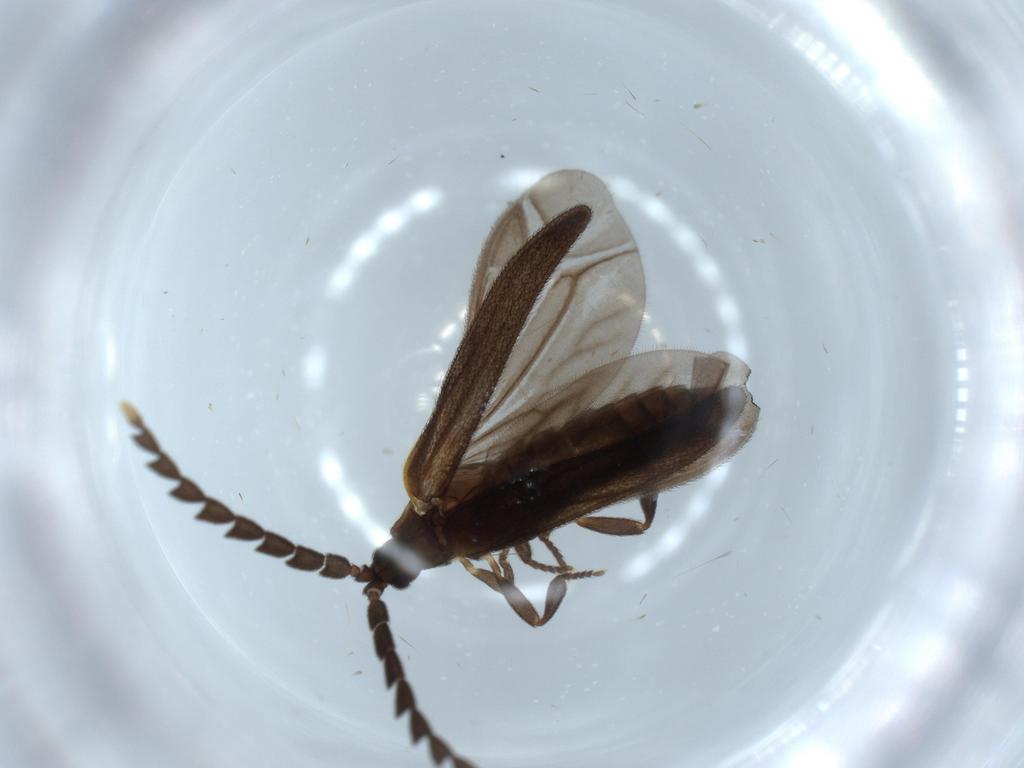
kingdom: Animalia
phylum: Arthropoda
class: Insecta
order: Coleoptera
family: Lycidae
